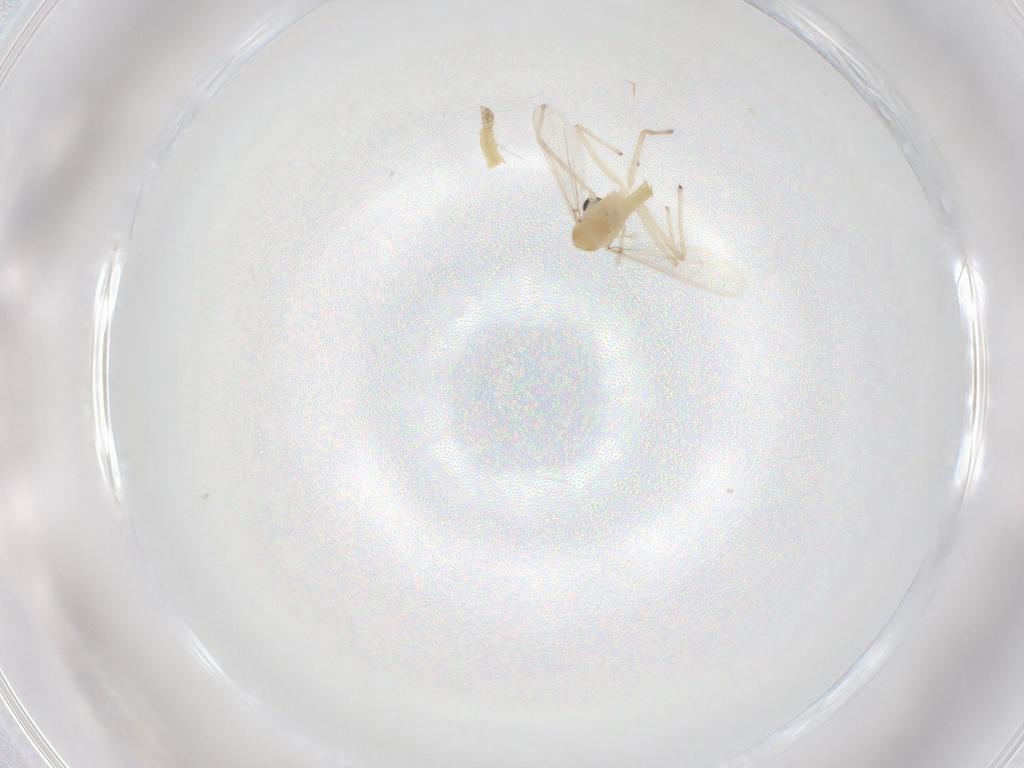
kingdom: Animalia
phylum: Arthropoda
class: Insecta
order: Diptera
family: Chironomidae
